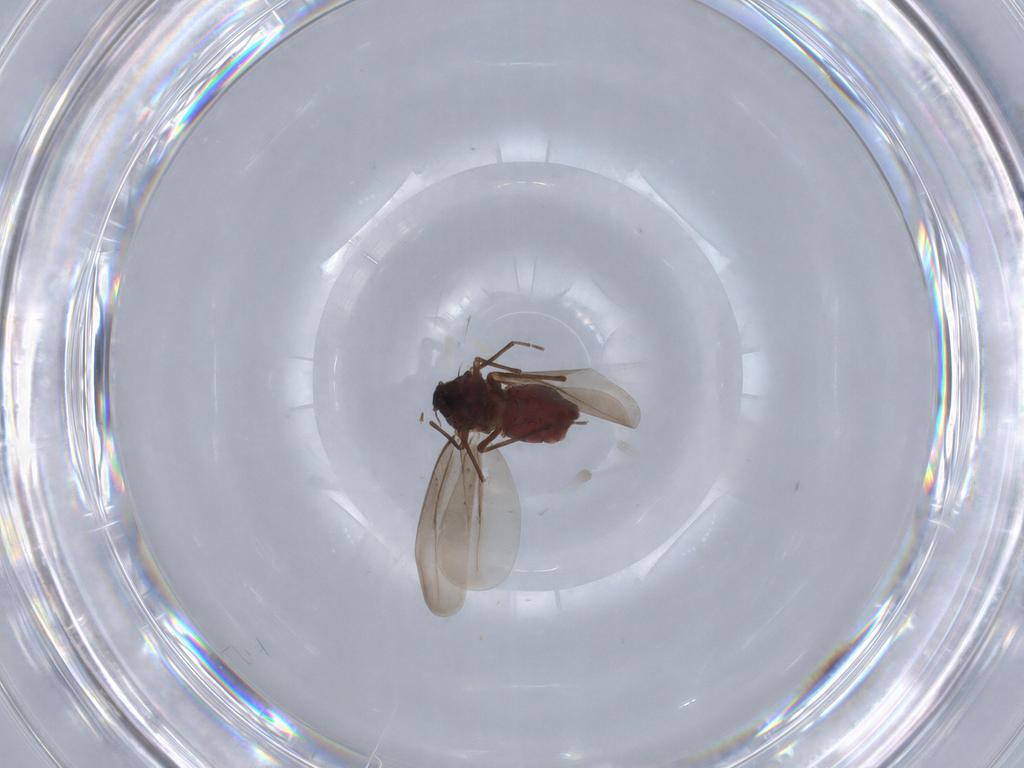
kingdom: Animalia
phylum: Arthropoda
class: Insecta
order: Hemiptera
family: Aleyrodidae
